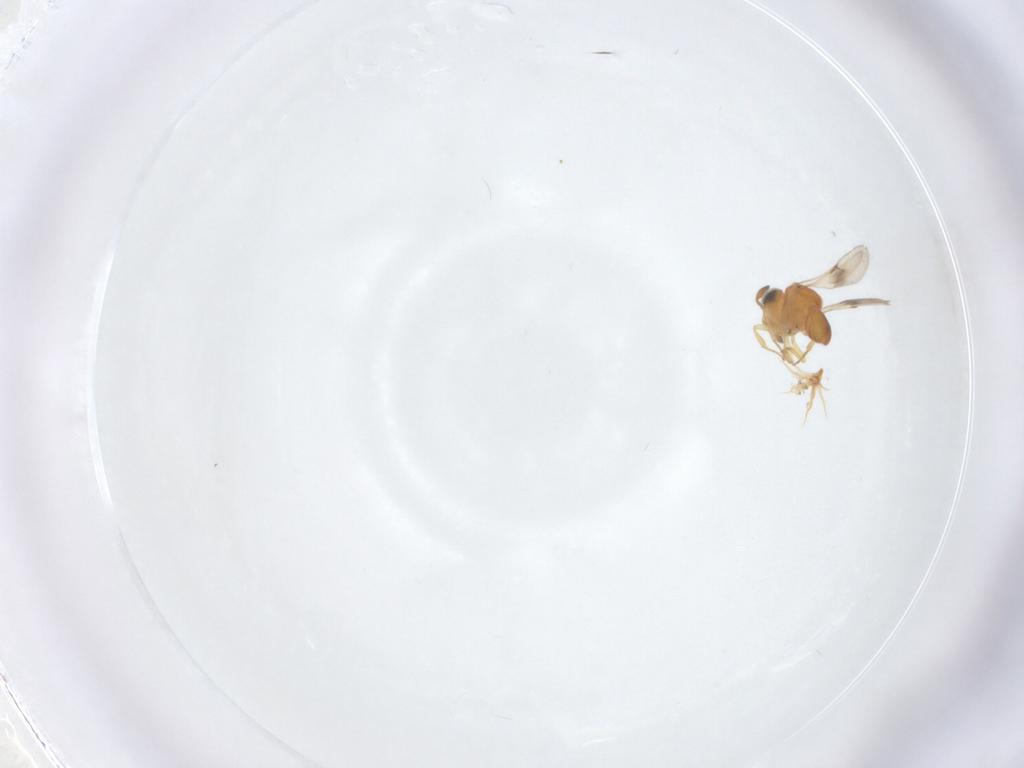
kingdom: Animalia
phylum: Arthropoda
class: Insecta
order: Hymenoptera
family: Scelionidae
